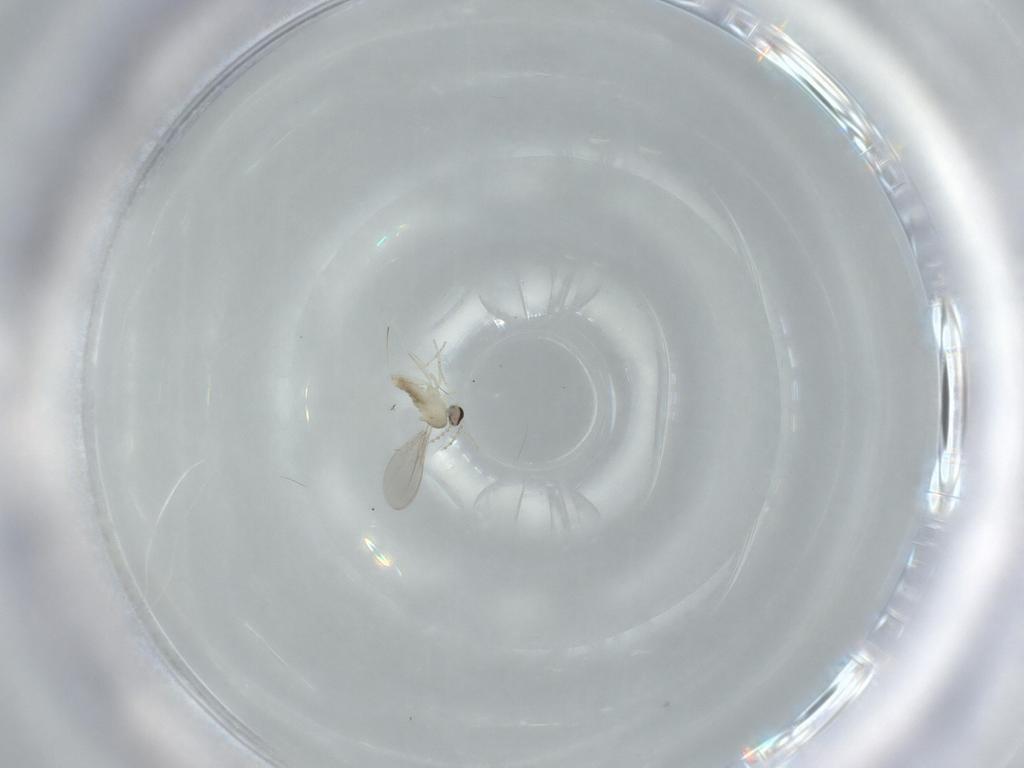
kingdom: Animalia
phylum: Arthropoda
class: Insecta
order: Diptera
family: Cecidomyiidae
